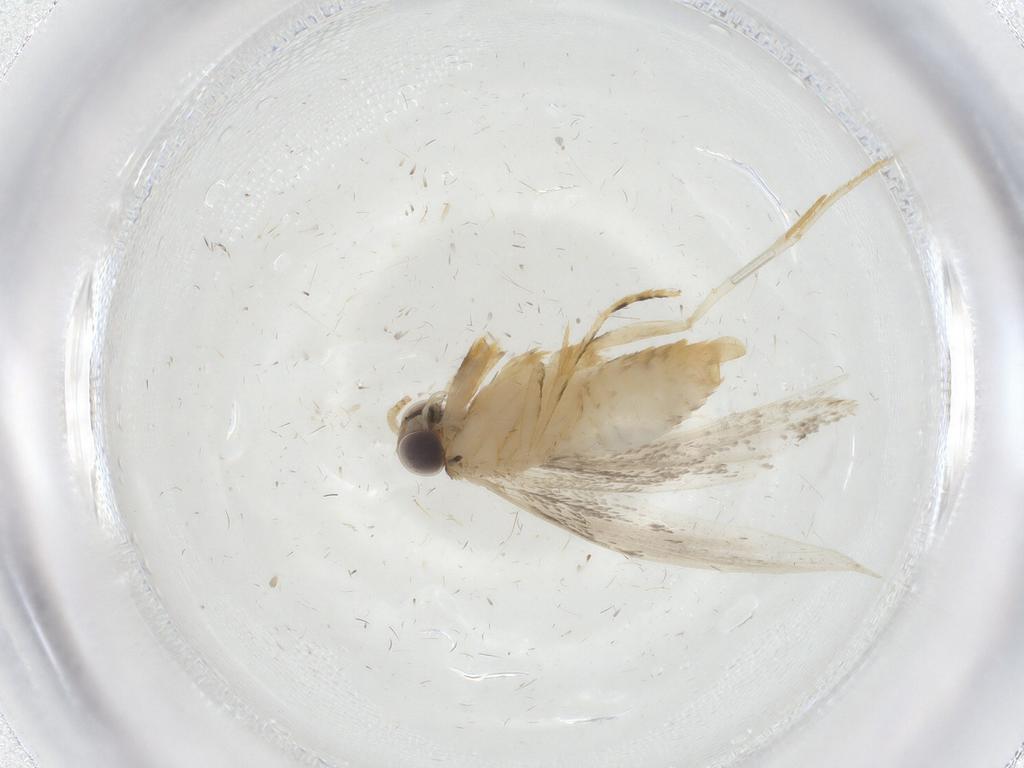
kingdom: Animalia
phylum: Arthropoda
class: Insecta
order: Lepidoptera
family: Tineidae
